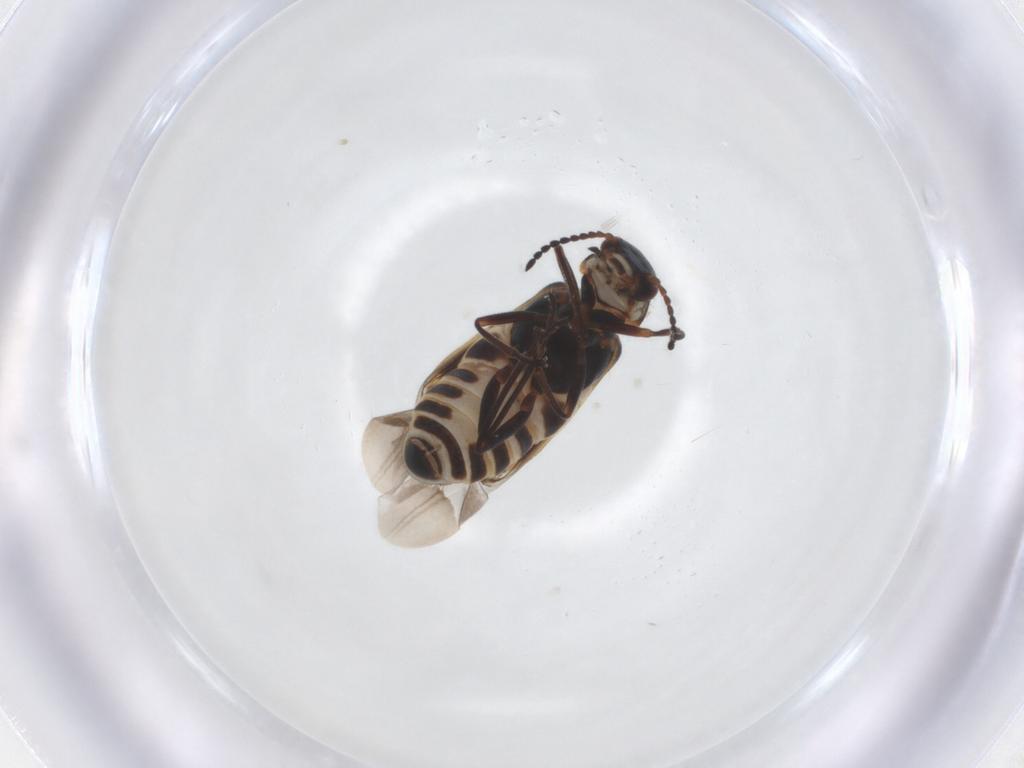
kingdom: Animalia
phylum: Arthropoda
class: Insecta
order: Coleoptera
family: Melyridae
